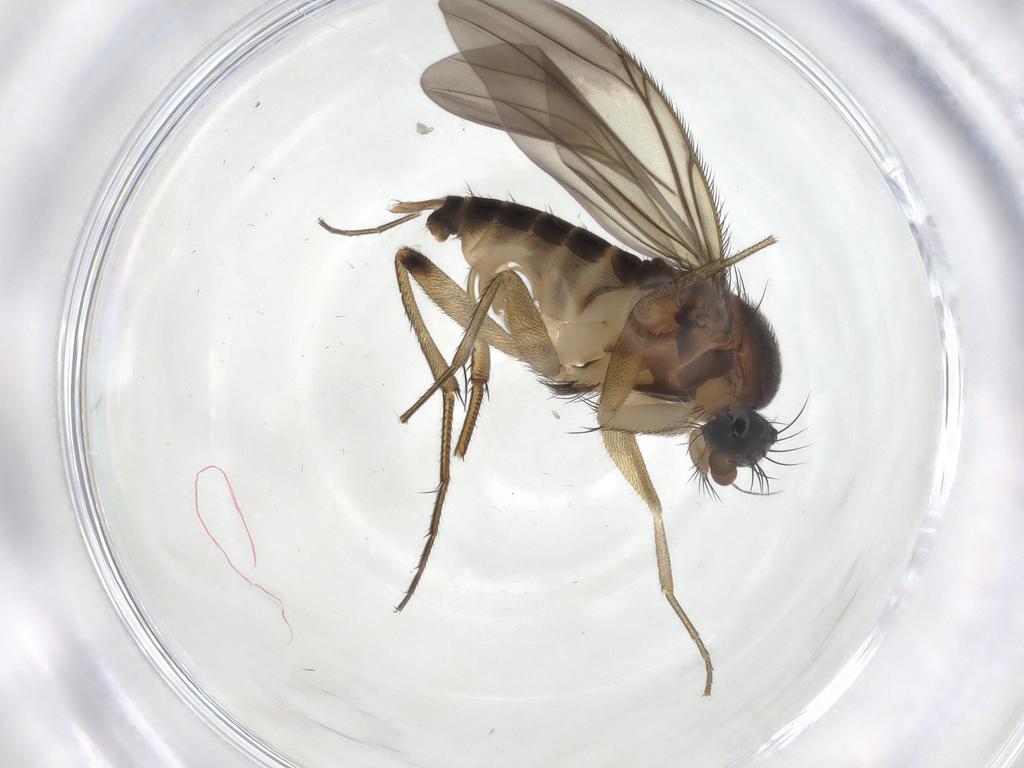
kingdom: Animalia
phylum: Arthropoda
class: Insecta
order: Diptera
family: Phoridae
